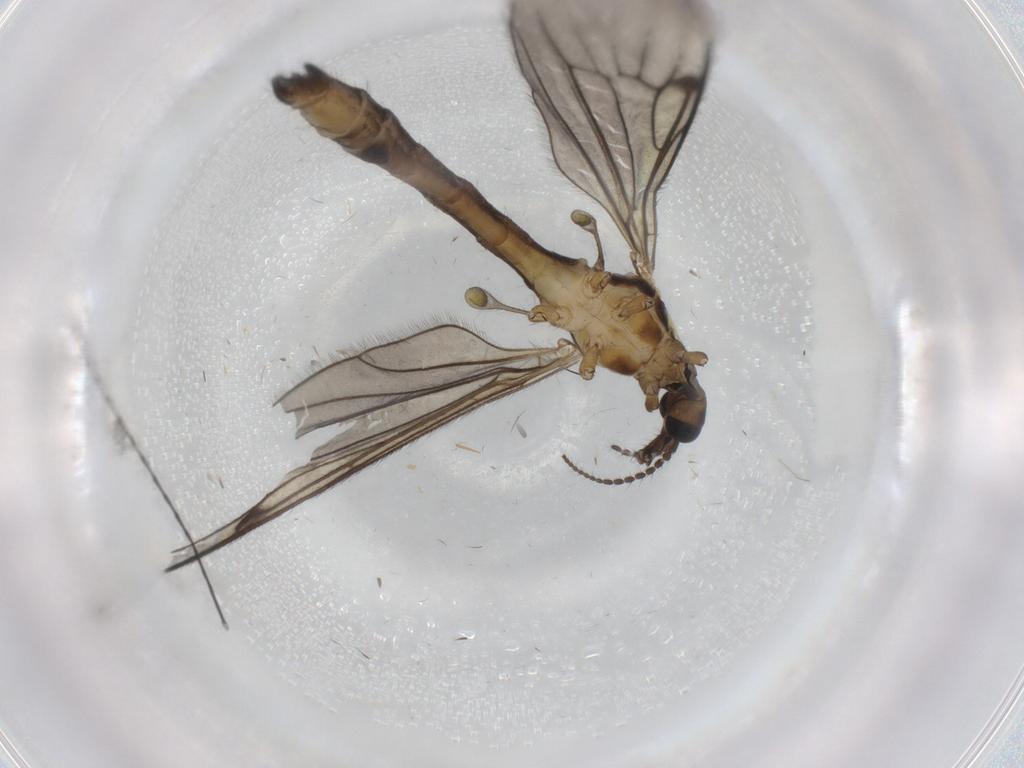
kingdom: Animalia
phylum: Arthropoda
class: Insecta
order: Diptera
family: Limoniidae
